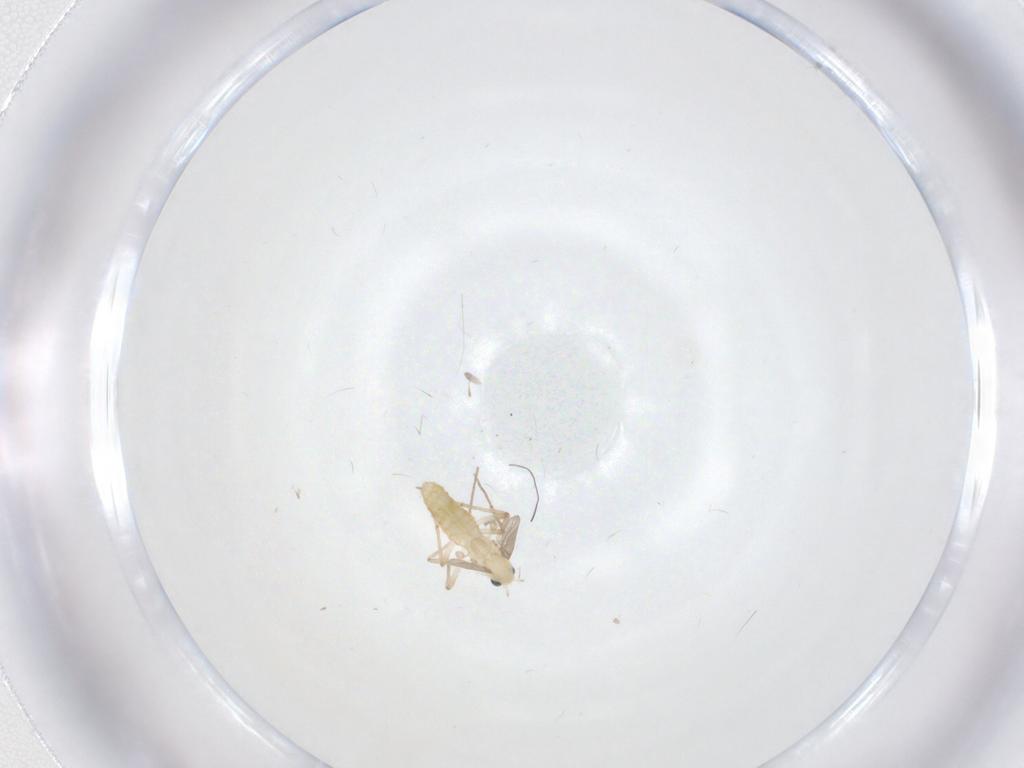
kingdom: Animalia
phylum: Arthropoda
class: Insecta
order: Diptera
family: Chironomidae
